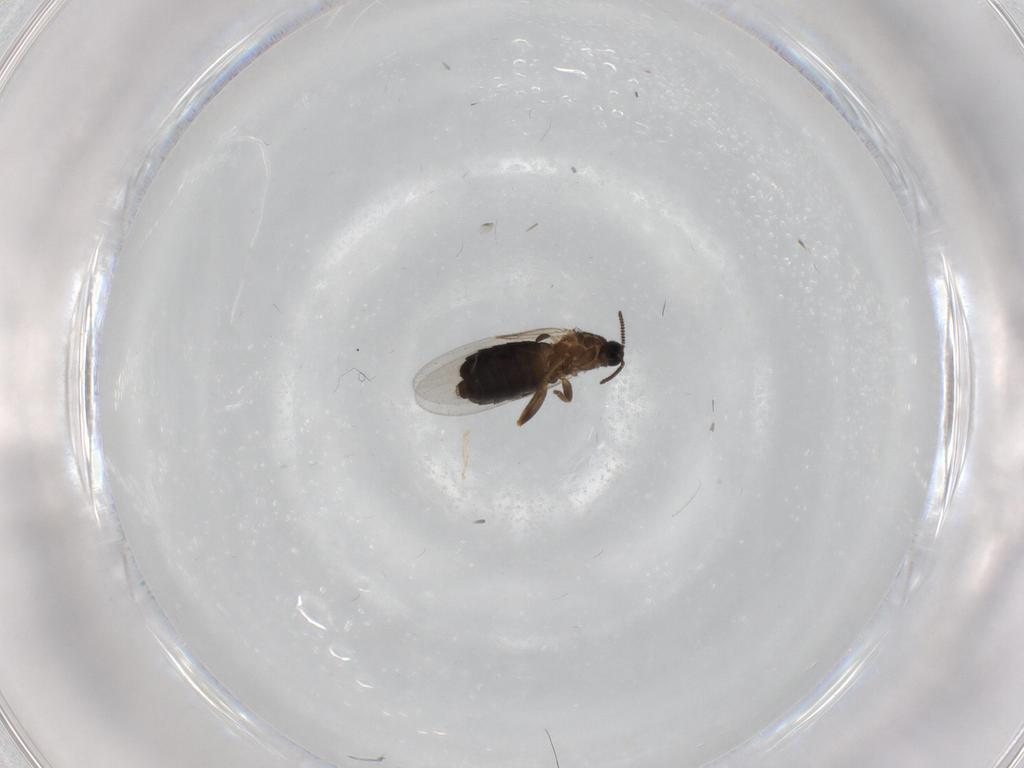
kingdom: Animalia
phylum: Arthropoda
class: Insecta
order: Diptera
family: Scatopsidae
